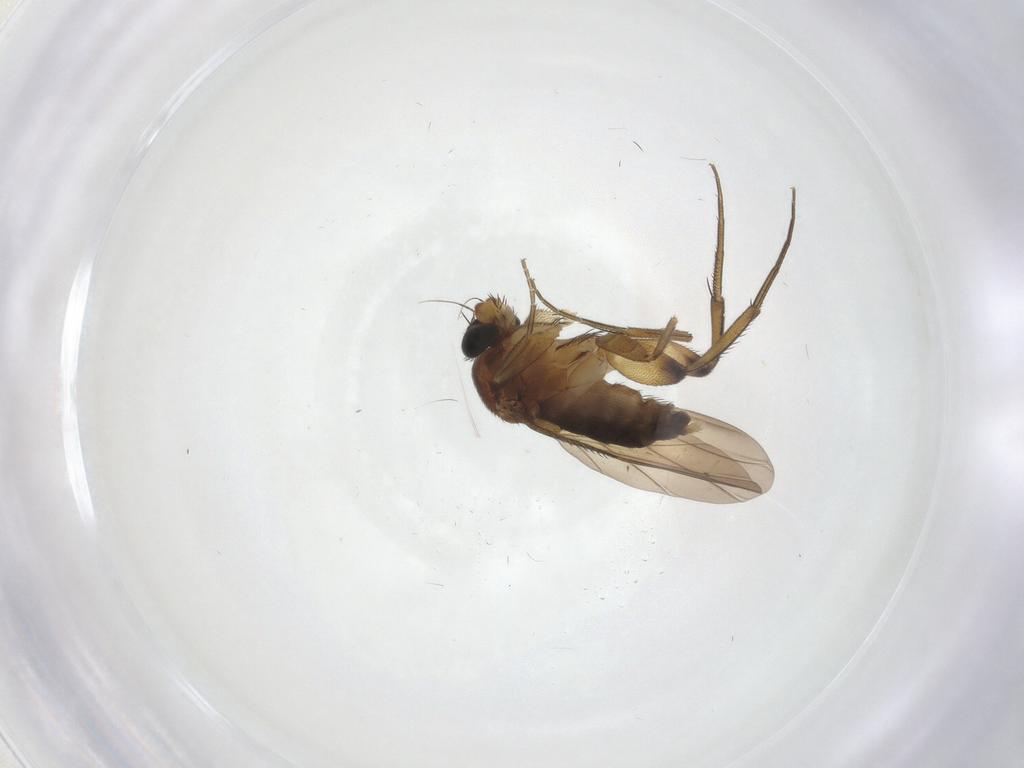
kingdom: Animalia
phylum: Arthropoda
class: Insecta
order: Diptera
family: Phoridae
